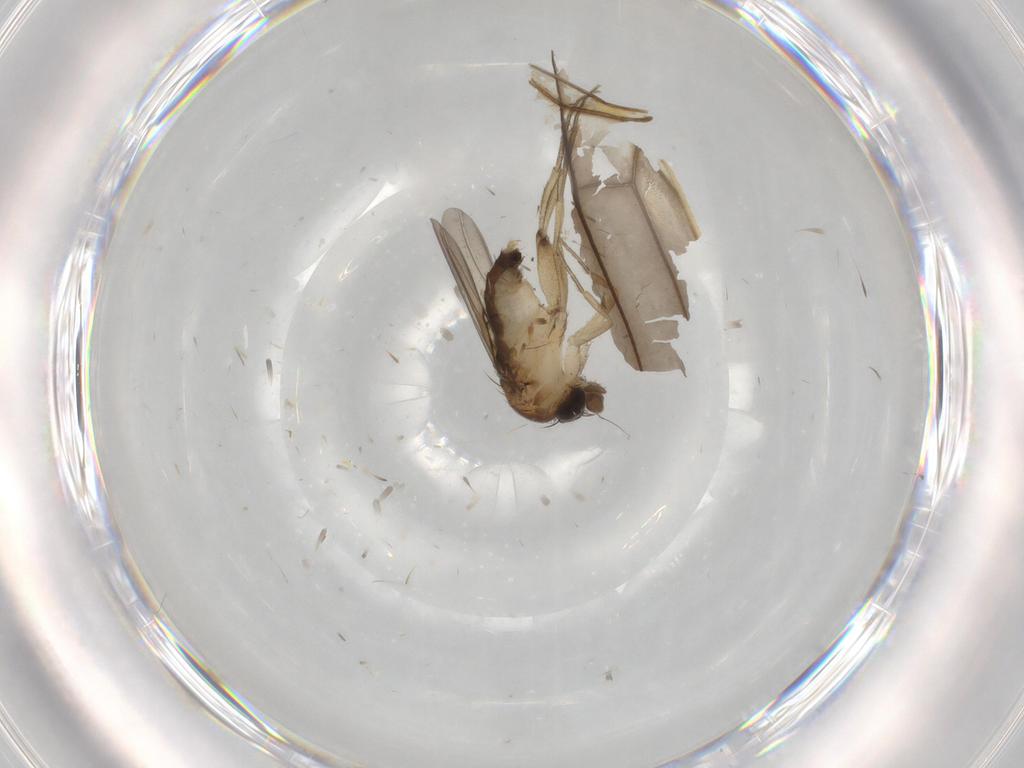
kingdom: Animalia
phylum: Arthropoda
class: Insecta
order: Diptera
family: Phoridae
